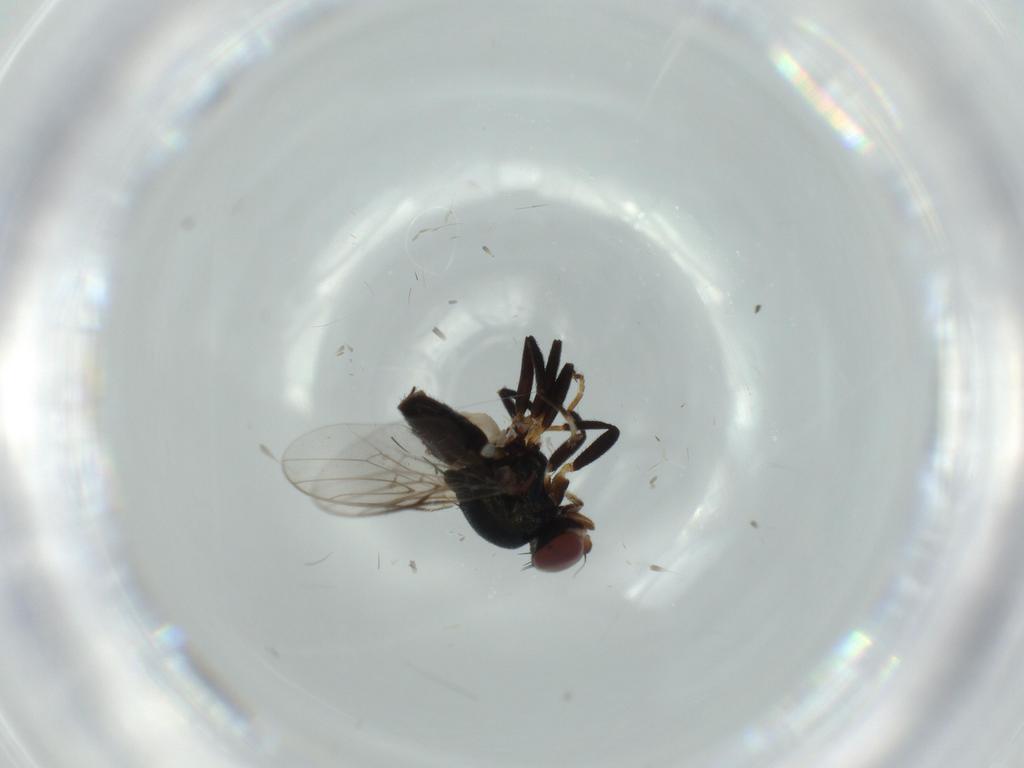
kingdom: Animalia
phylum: Arthropoda
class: Insecta
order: Diptera
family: Chloropidae
